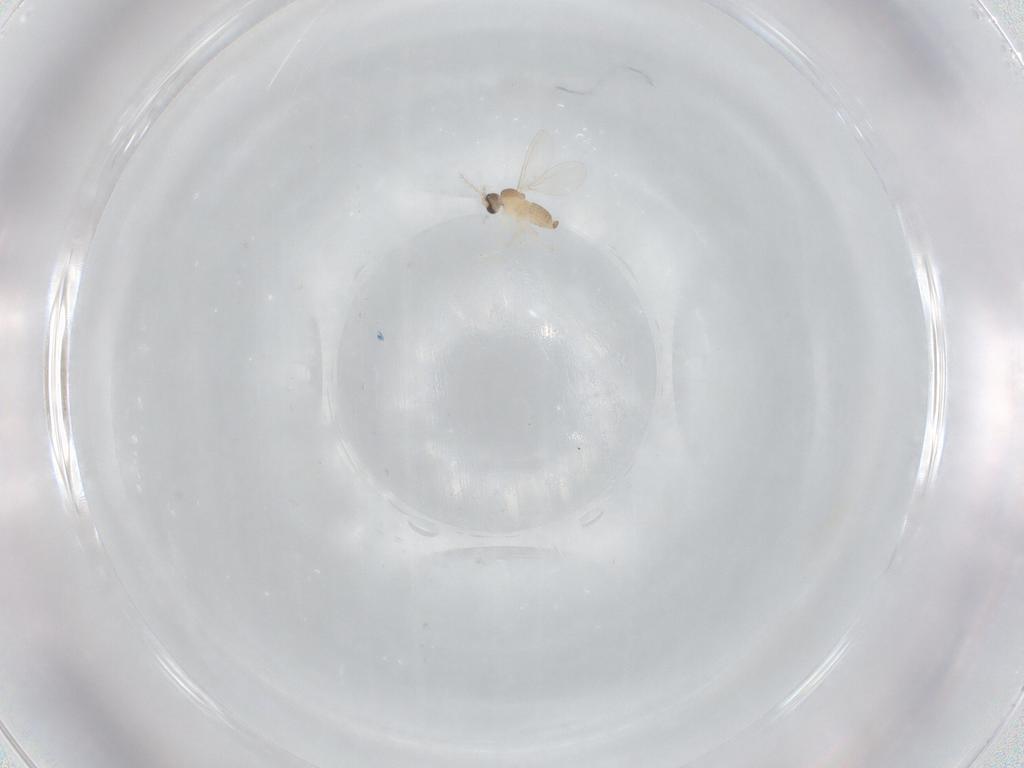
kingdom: Animalia
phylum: Arthropoda
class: Insecta
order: Diptera
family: Cecidomyiidae
